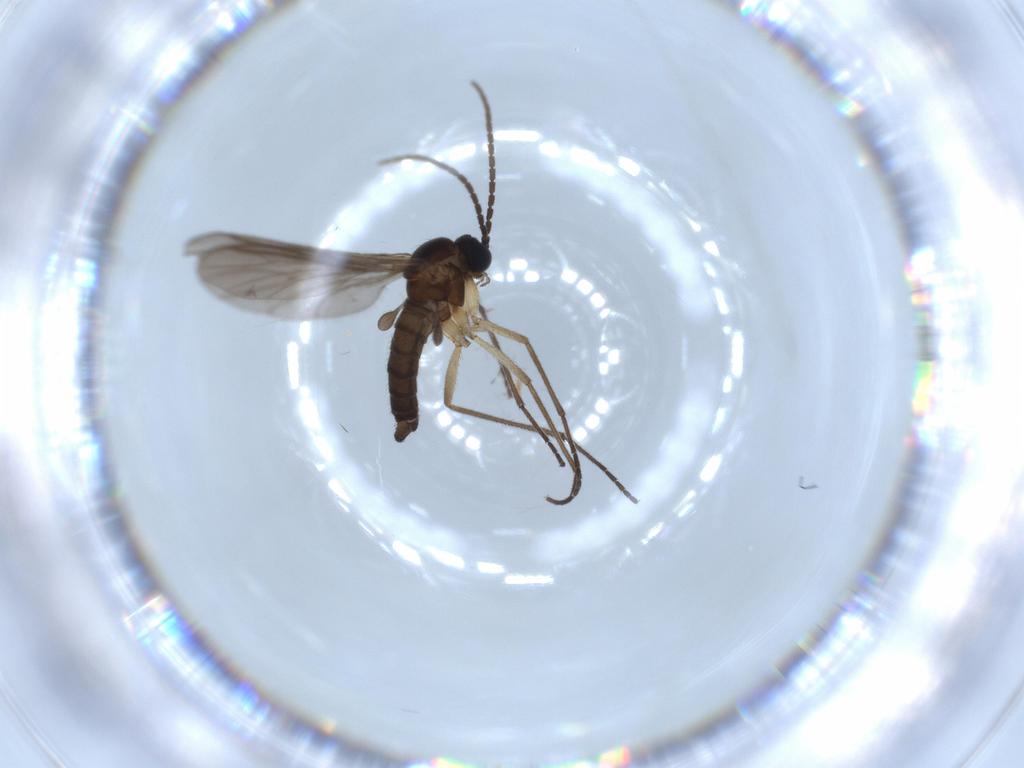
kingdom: Animalia
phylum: Arthropoda
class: Insecta
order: Diptera
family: Sciaridae
